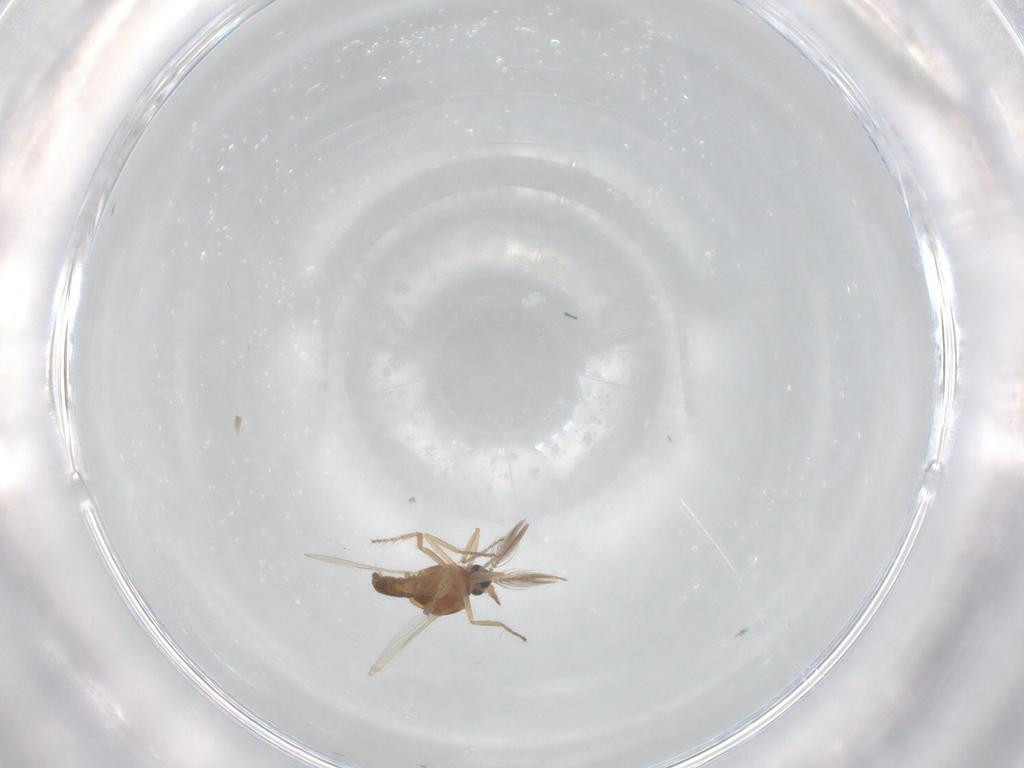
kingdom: Animalia
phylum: Arthropoda
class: Insecta
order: Diptera
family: Ceratopogonidae
